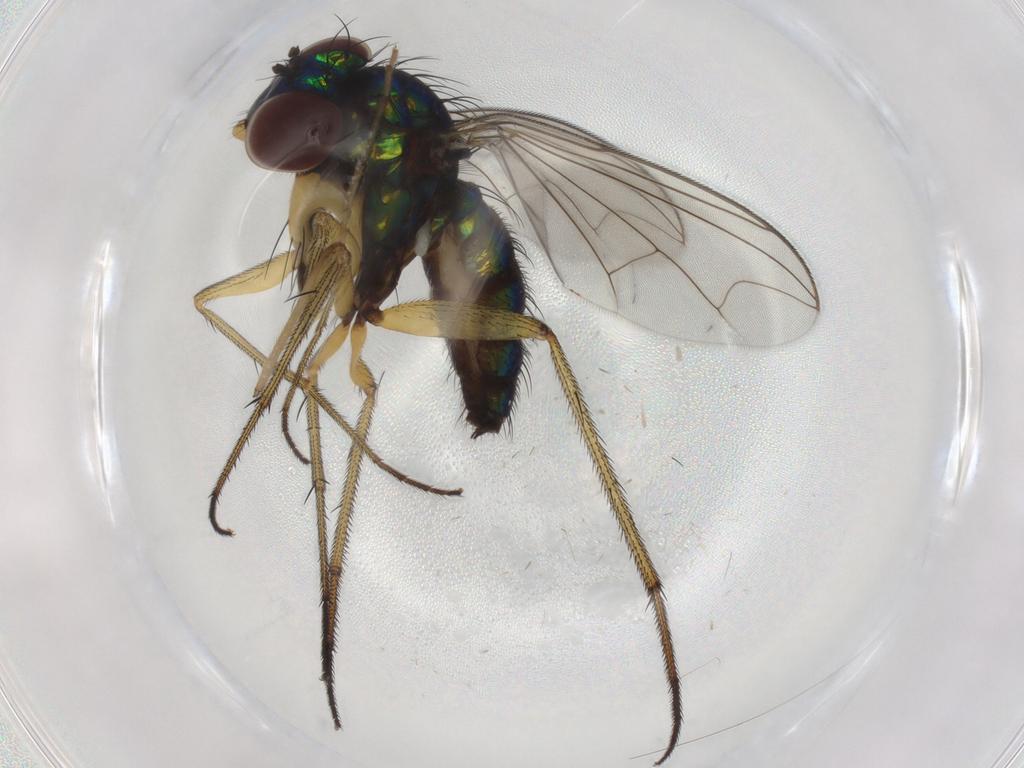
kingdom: Animalia
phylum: Arthropoda
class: Insecta
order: Diptera
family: Dolichopodidae
